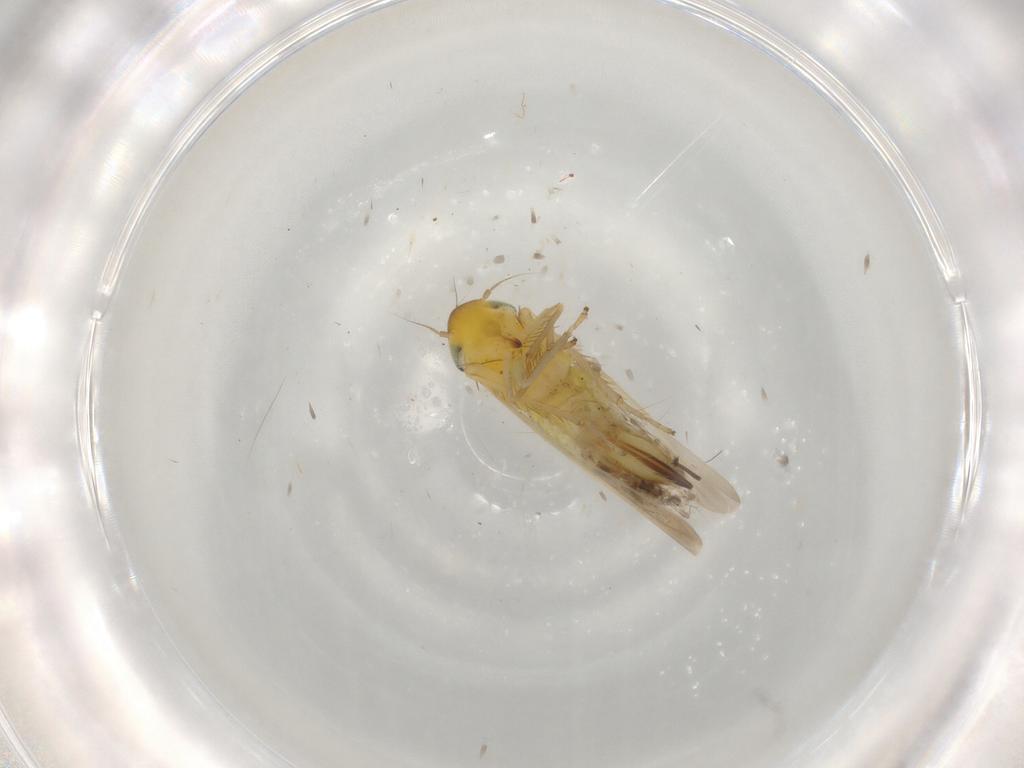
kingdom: Animalia
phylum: Arthropoda
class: Insecta
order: Hemiptera
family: Cicadellidae
